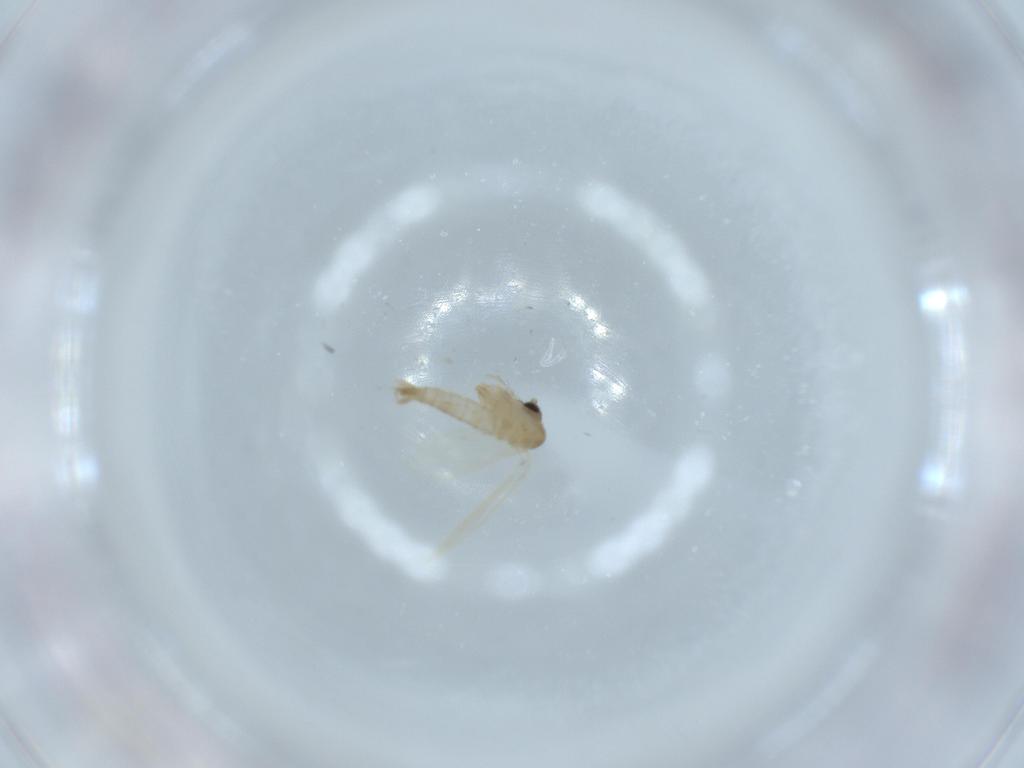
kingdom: Animalia
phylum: Arthropoda
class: Insecta
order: Diptera
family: Psychodidae
